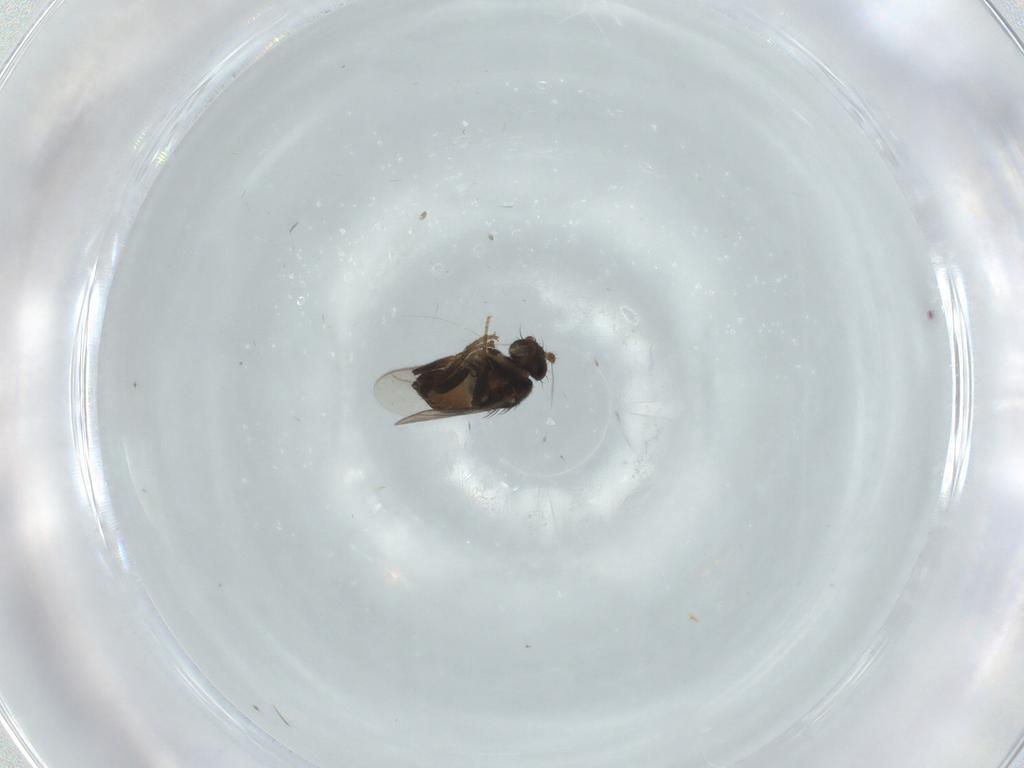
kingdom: Animalia
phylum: Arthropoda
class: Insecta
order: Diptera
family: Sphaeroceridae
